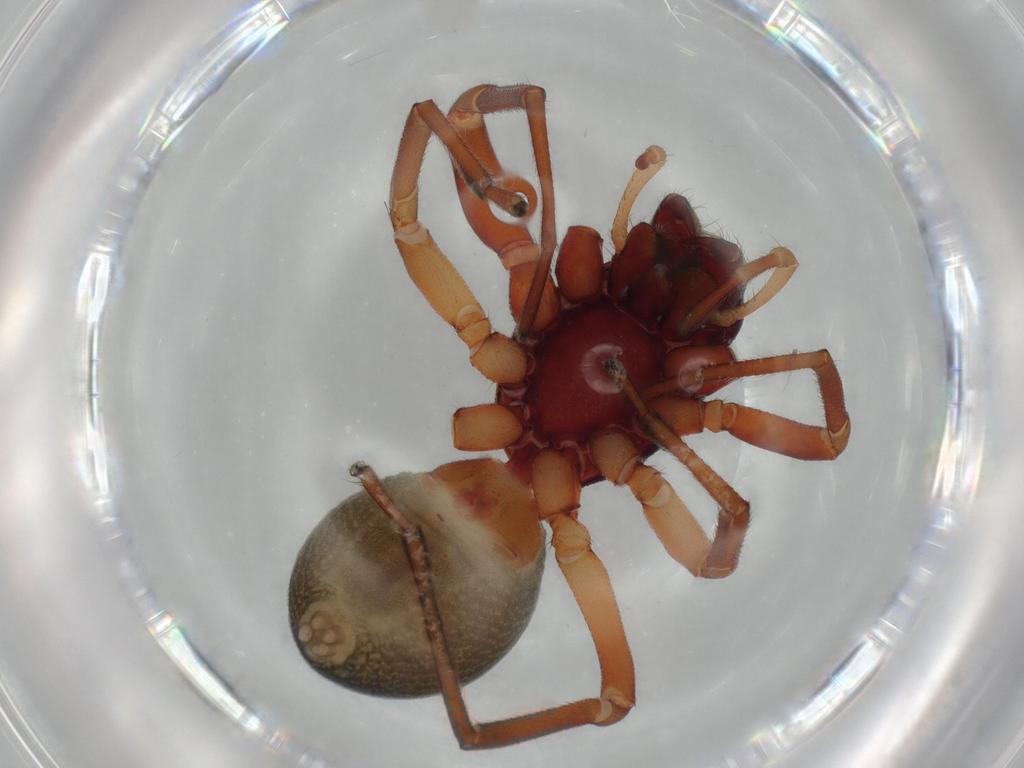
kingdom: Animalia
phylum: Arthropoda
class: Arachnida
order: Araneae
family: Trachelidae
